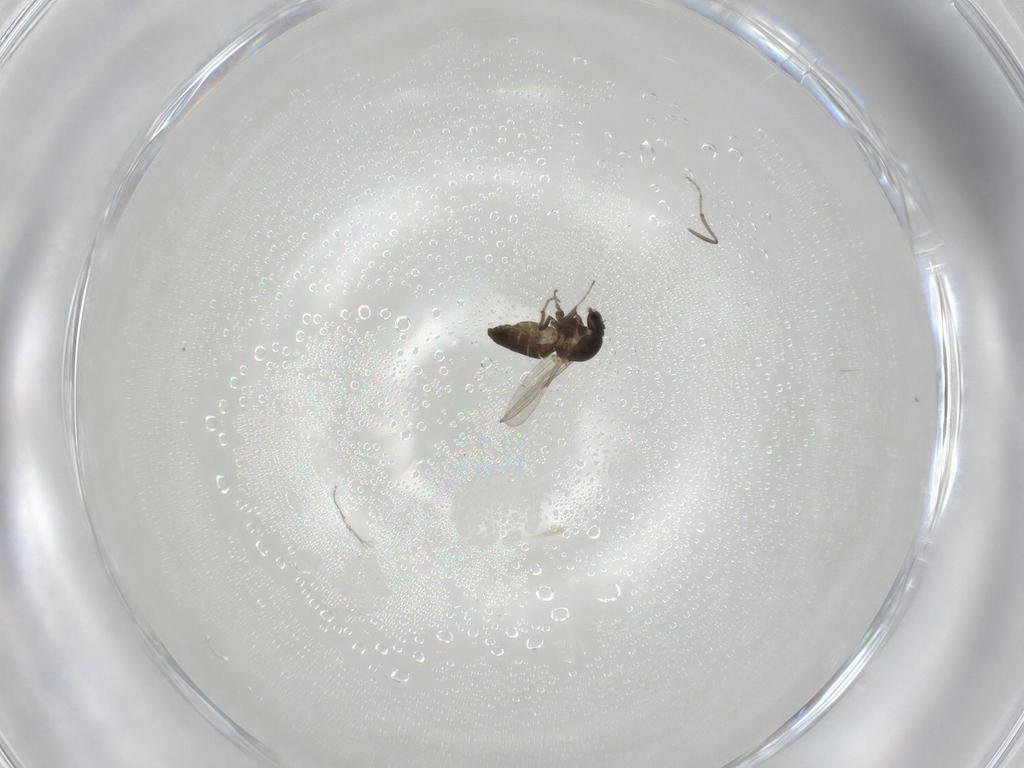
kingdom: Animalia
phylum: Arthropoda
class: Insecta
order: Diptera
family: Ceratopogonidae
